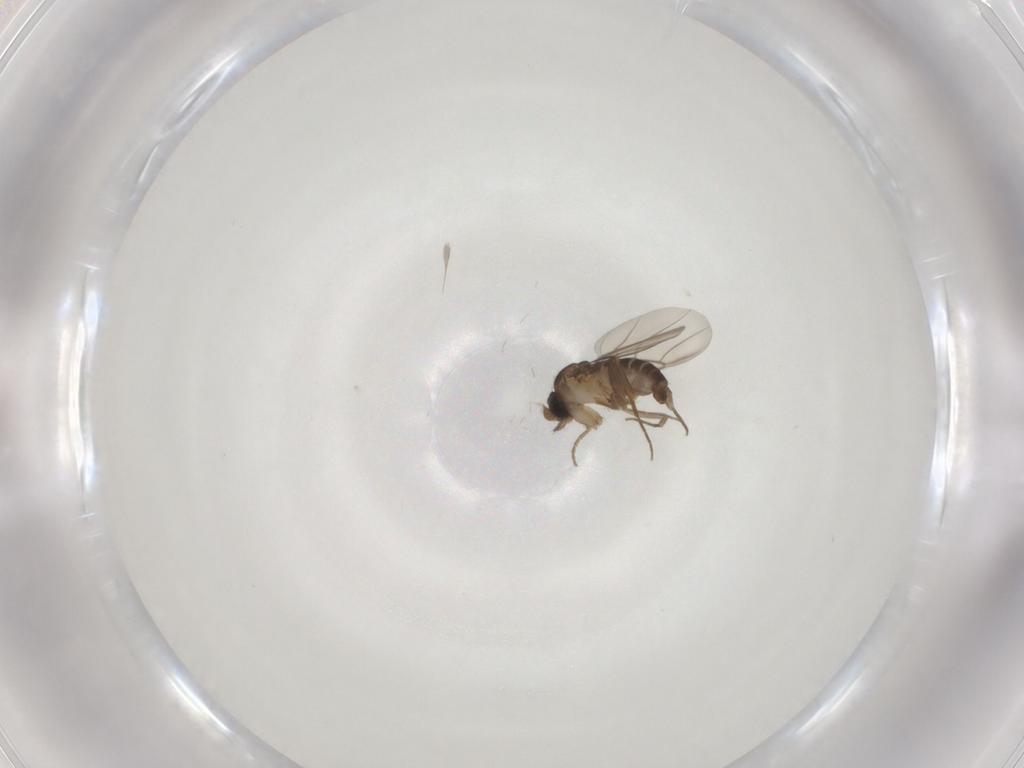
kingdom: Animalia
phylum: Arthropoda
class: Insecta
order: Diptera
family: Phoridae
